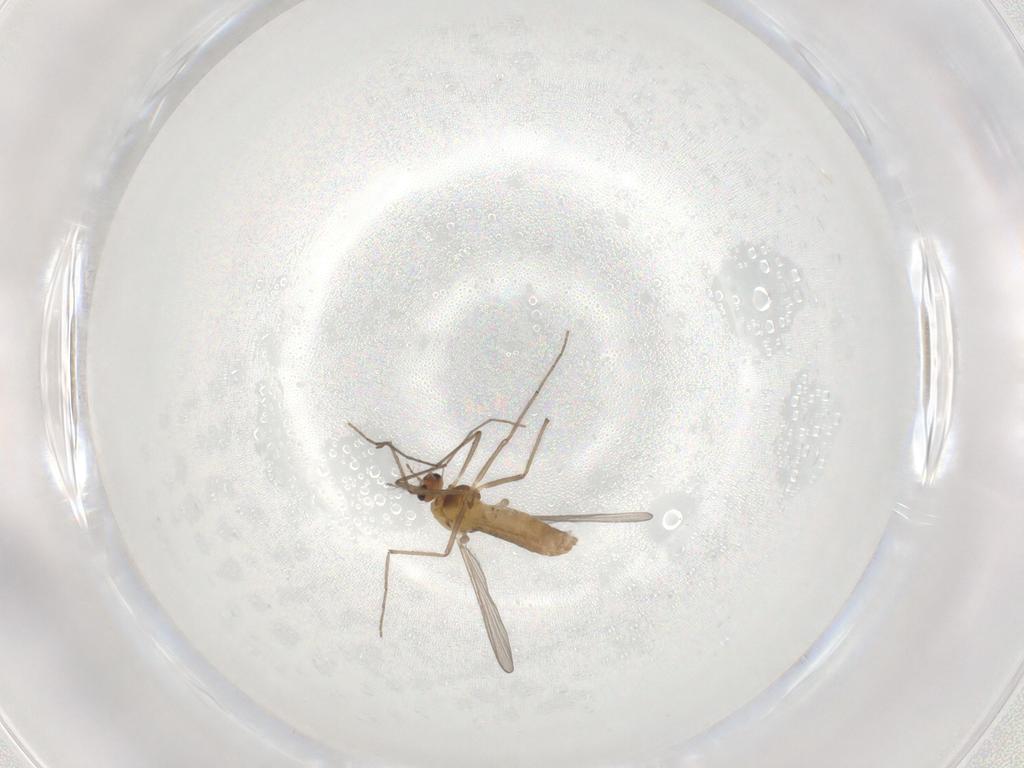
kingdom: Animalia
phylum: Arthropoda
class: Insecta
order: Diptera
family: Chironomidae
